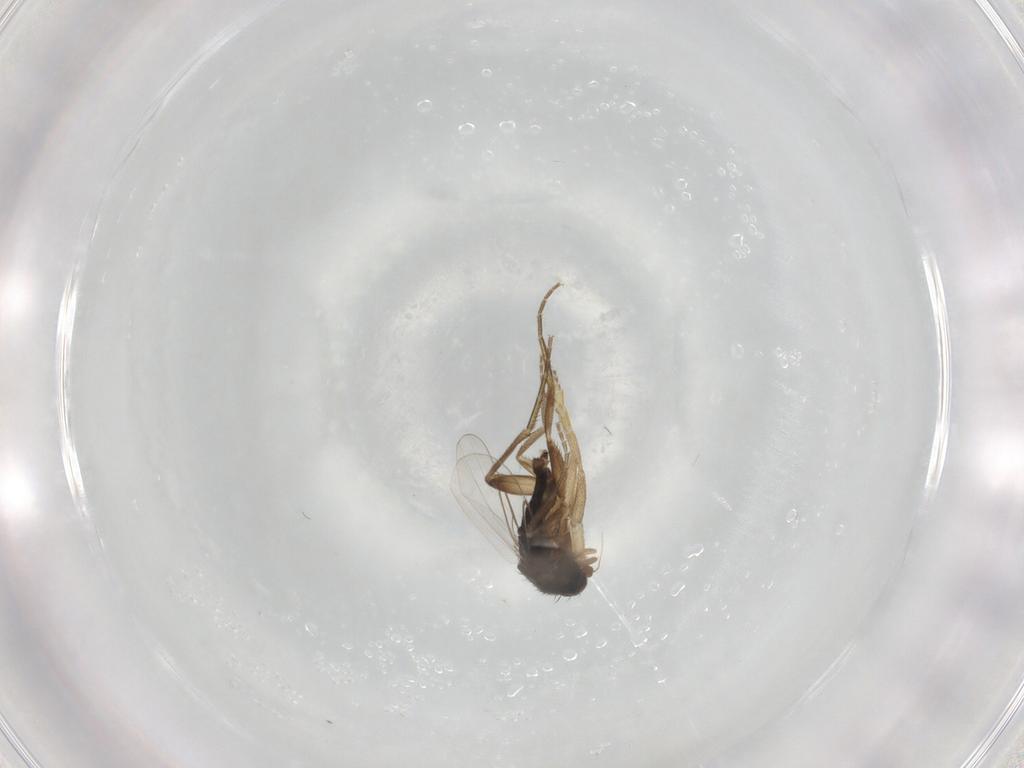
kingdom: Animalia
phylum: Arthropoda
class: Insecta
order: Diptera
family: Phoridae
